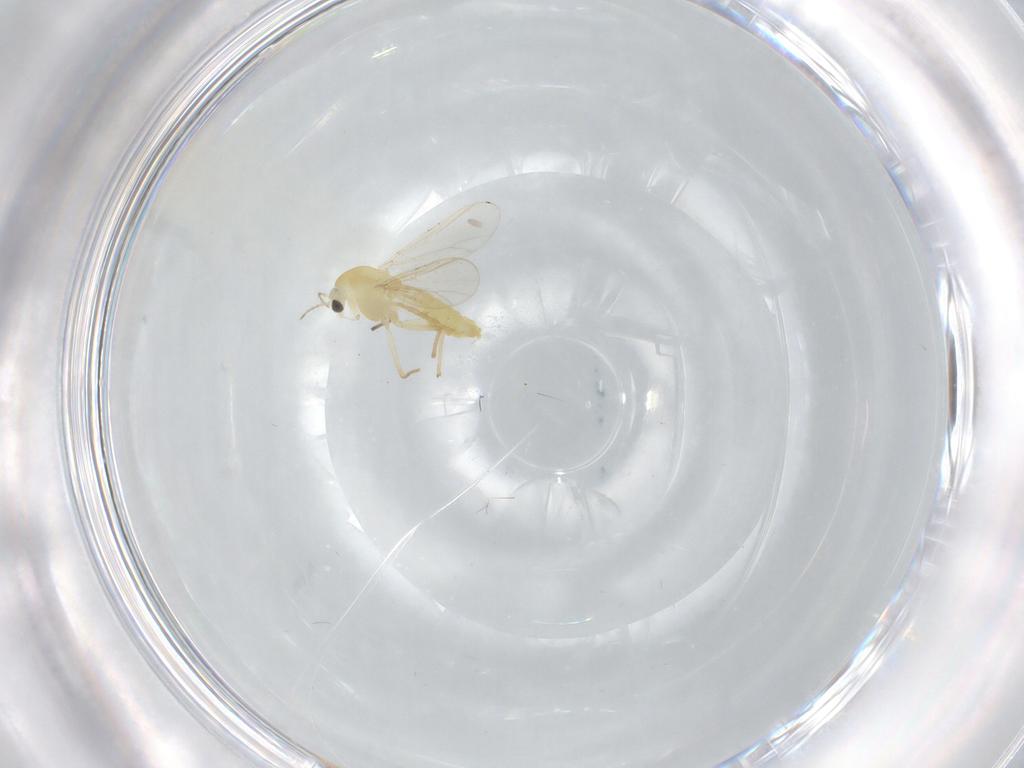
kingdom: Animalia
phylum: Arthropoda
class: Insecta
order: Diptera
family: Chironomidae
